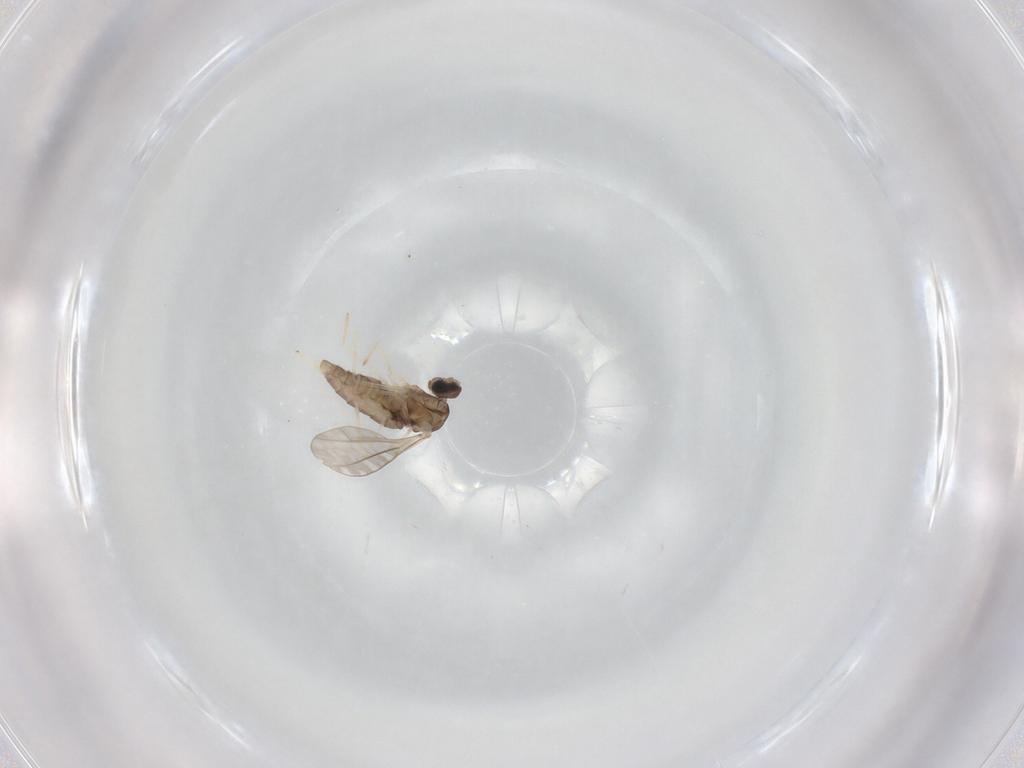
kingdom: Animalia
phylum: Arthropoda
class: Insecta
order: Diptera
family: Cecidomyiidae
